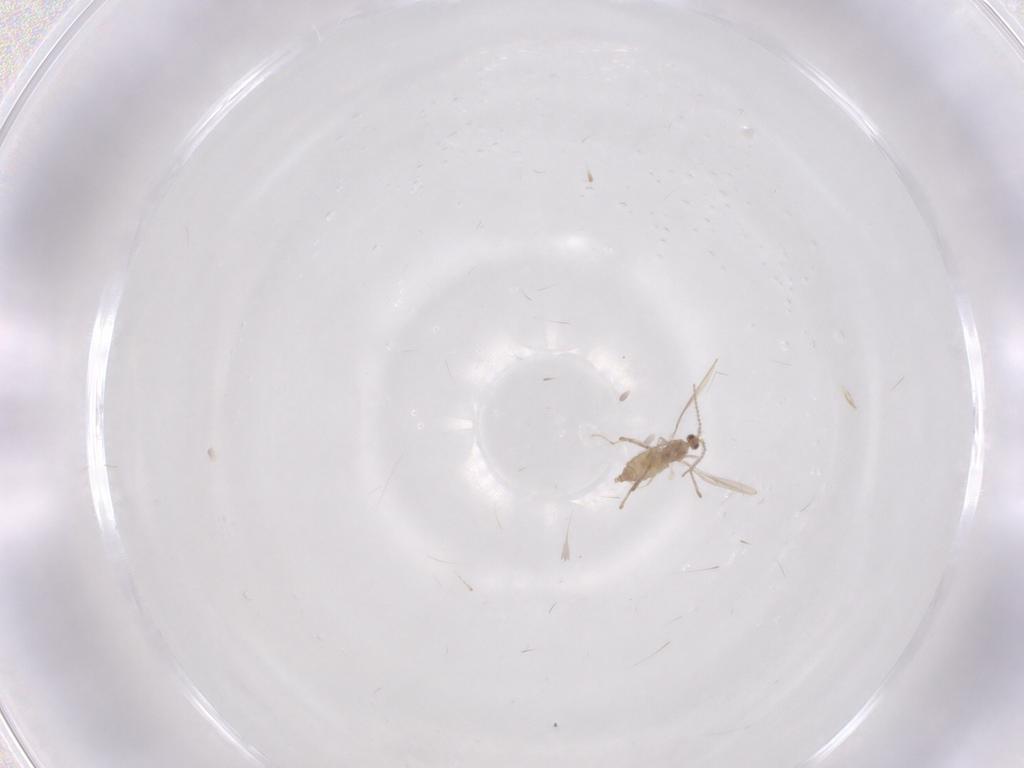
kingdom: Animalia
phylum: Arthropoda
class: Insecta
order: Diptera
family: Cecidomyiidae
